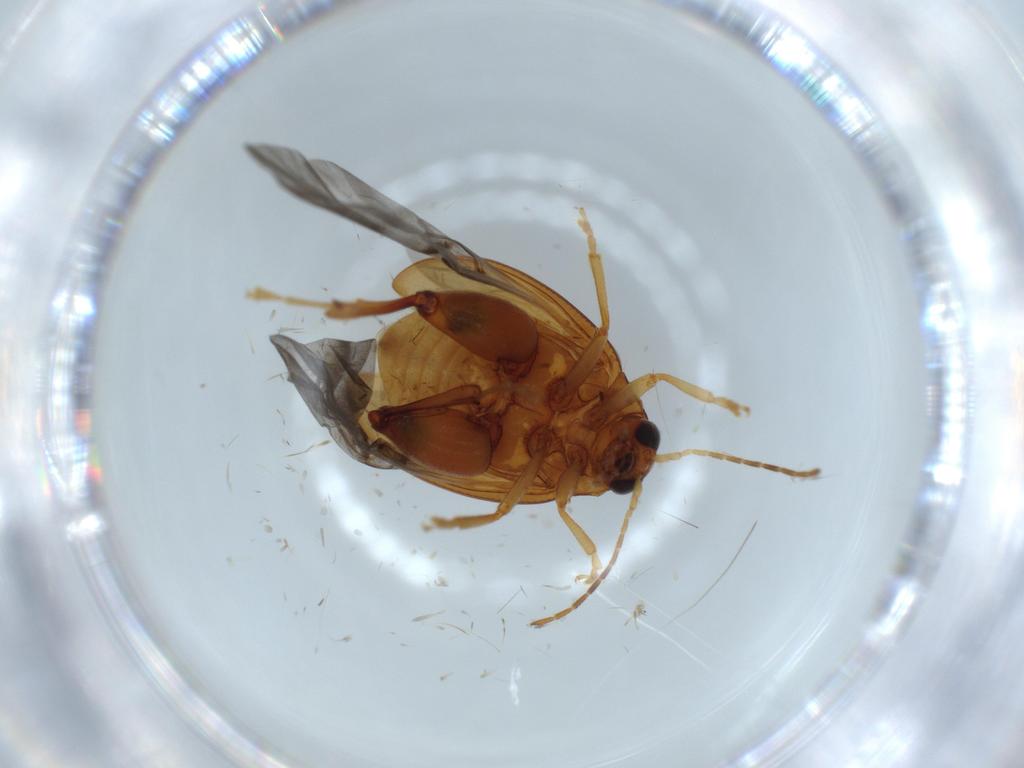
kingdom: Animalia
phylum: Arthropoda
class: Insecta
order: Coleoptera
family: Chrysomelidae
